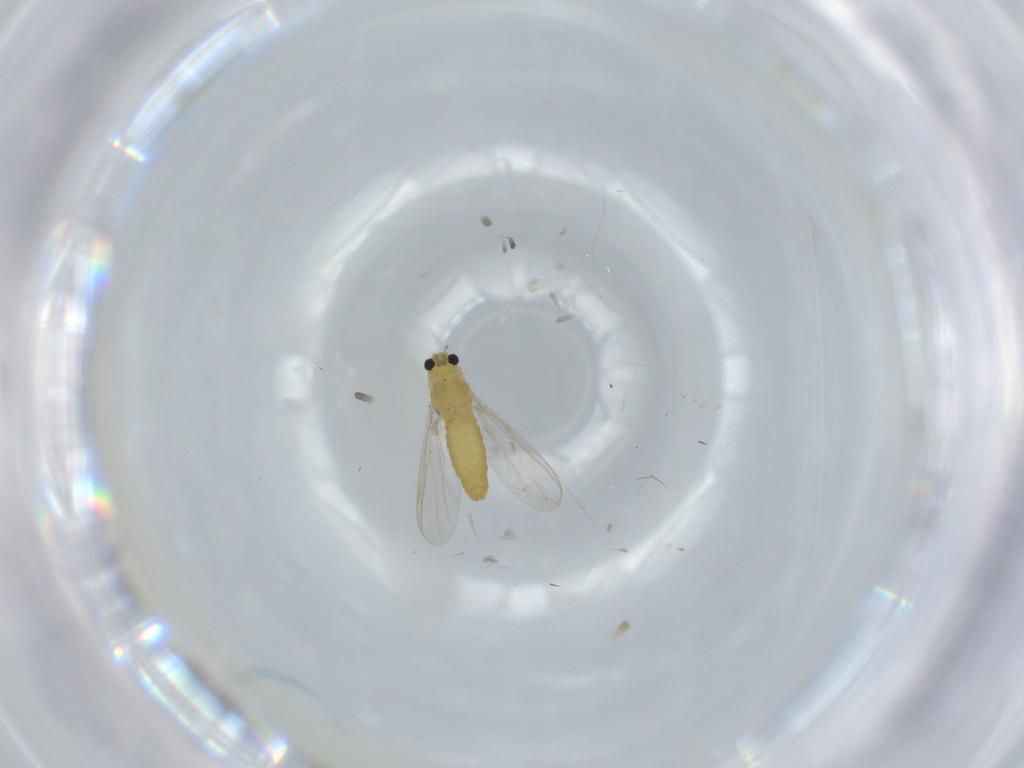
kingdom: Animalia
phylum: Arthropoda
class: Insecta
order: Diptera
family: Chironomidae
